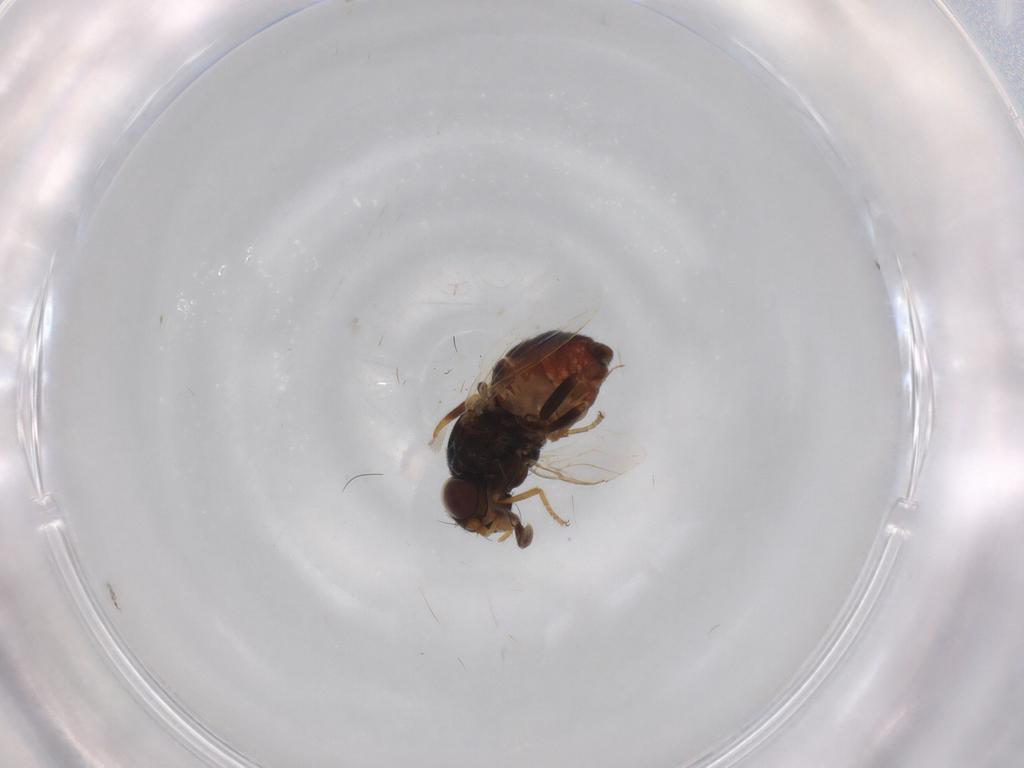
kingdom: Animalia
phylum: Arthropoda
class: Insecta
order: Diptera
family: Chloropidae
